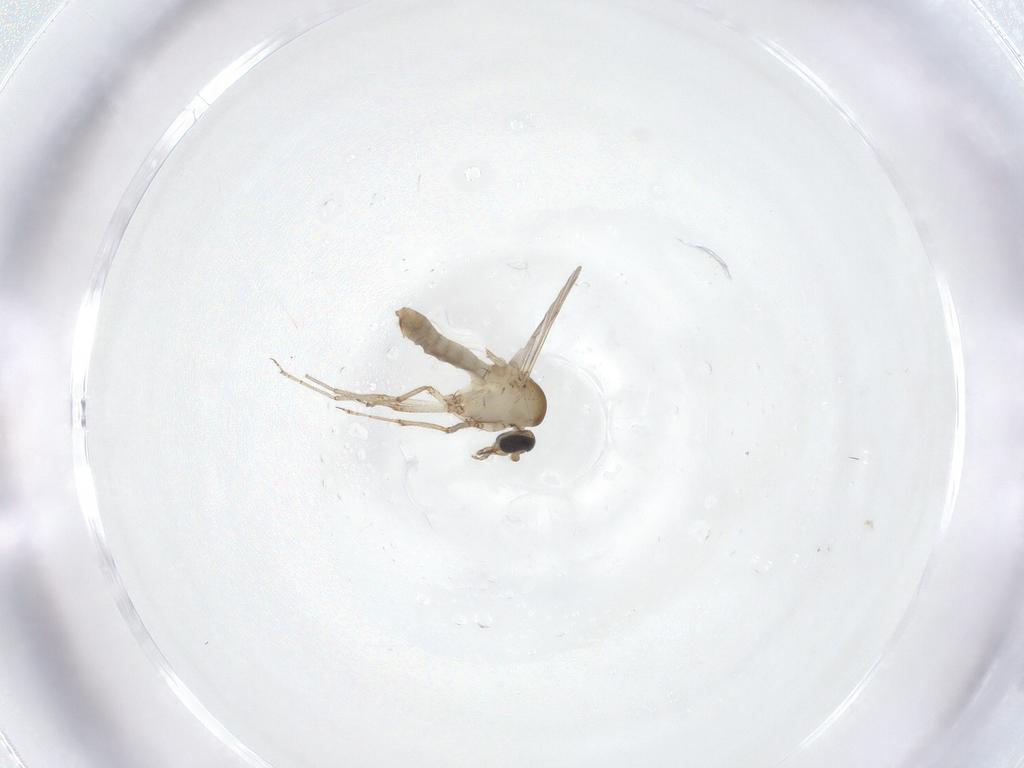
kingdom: Animalia
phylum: Arthropoda
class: Insecta
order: Diptera
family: Ceratopogonidae
